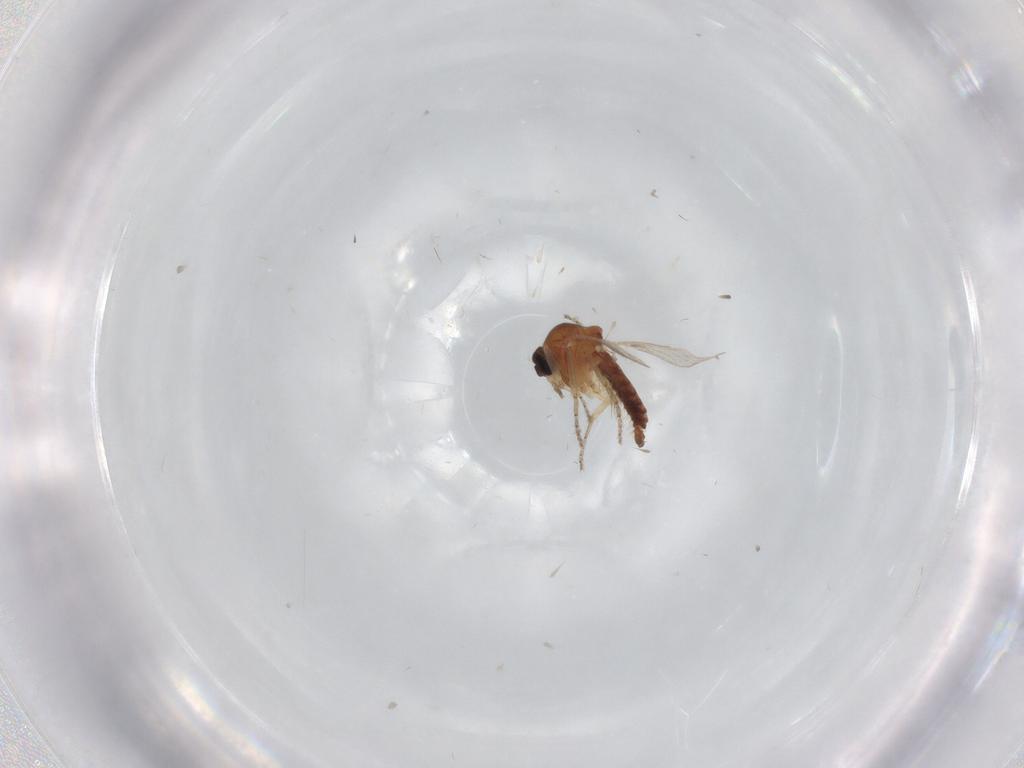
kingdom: Animalia
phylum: Arthropoda
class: Insecta
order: Diptera
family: Ceratopogonidae
